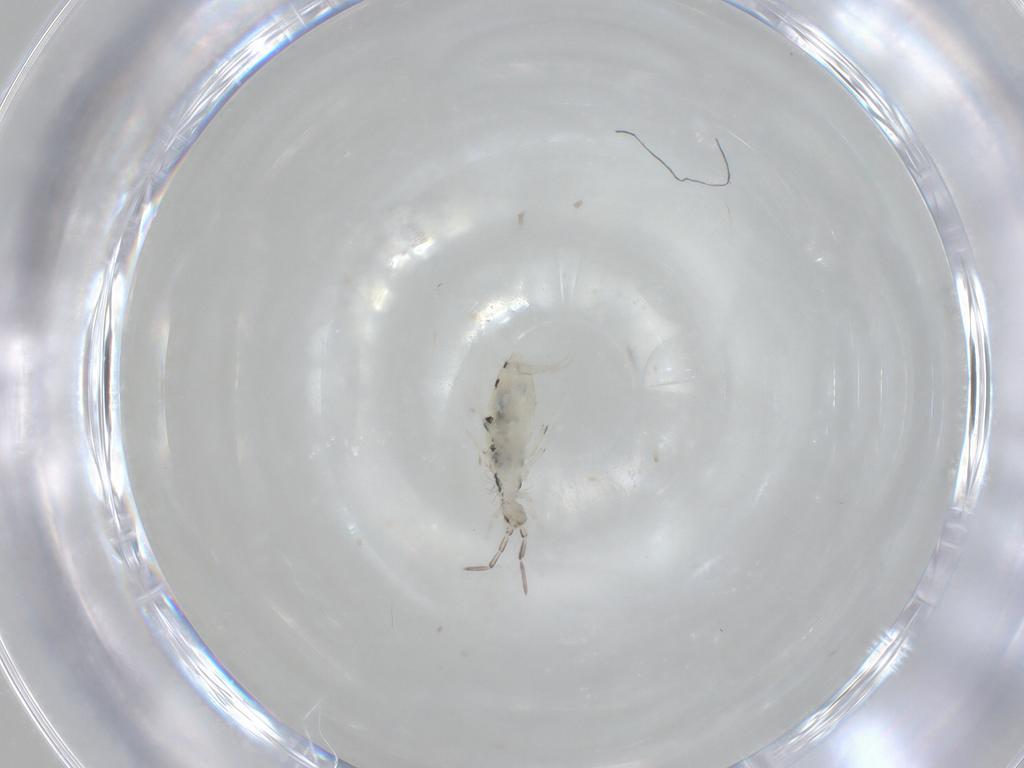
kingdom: Animalia
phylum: Arthropoda
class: Collembola
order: Entomobryomorpha
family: Entomobryidae
